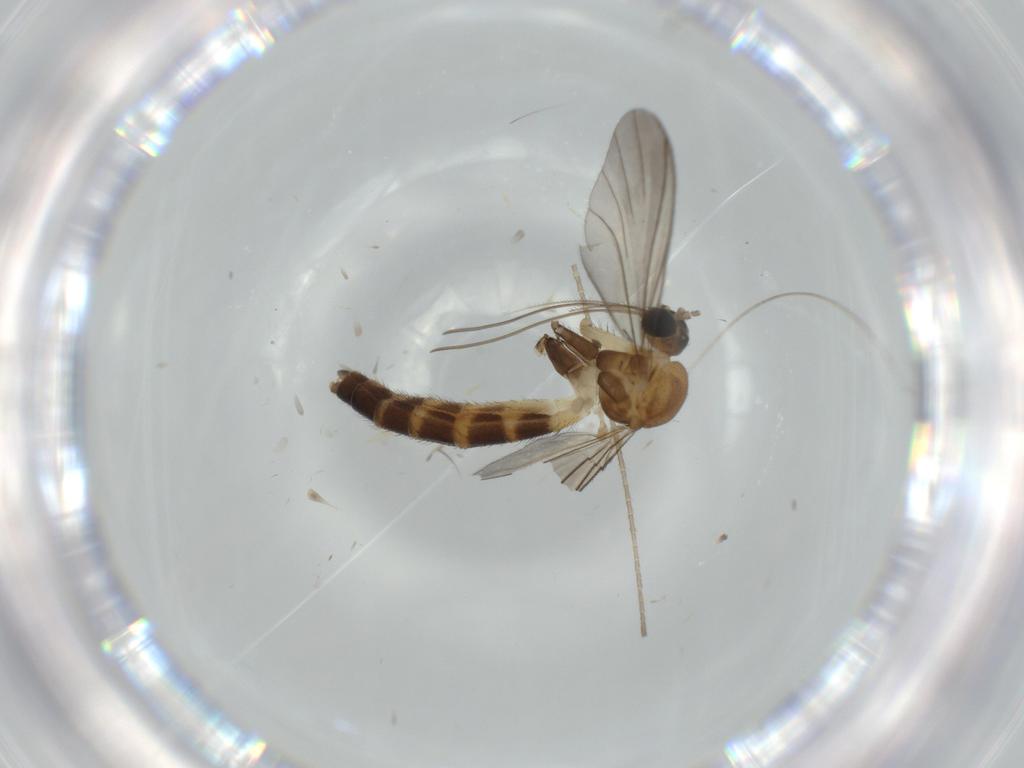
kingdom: Animalia
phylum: Arthropoda
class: Insecta
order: Diptera
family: Keroplatidae
